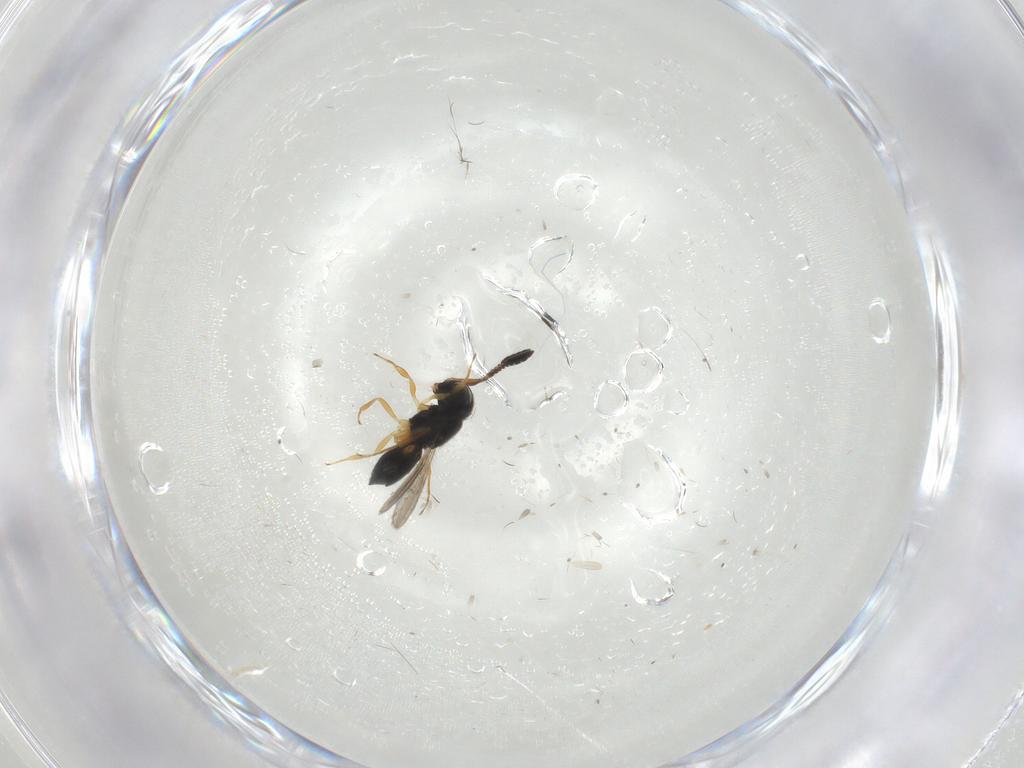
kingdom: Animalia
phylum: Arthropoda
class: Insecta
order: Hymenoptera
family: Scelionidae
